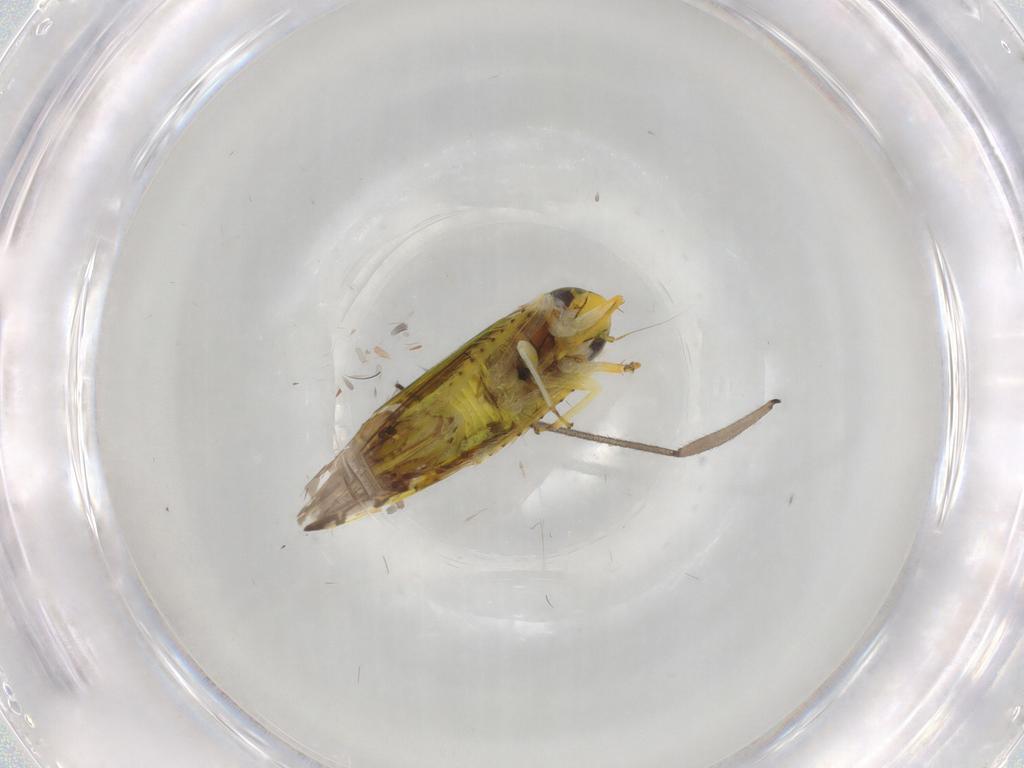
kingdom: Animalia
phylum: Arthropoda
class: Insecta
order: Hemiptera
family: Cicadellidae
